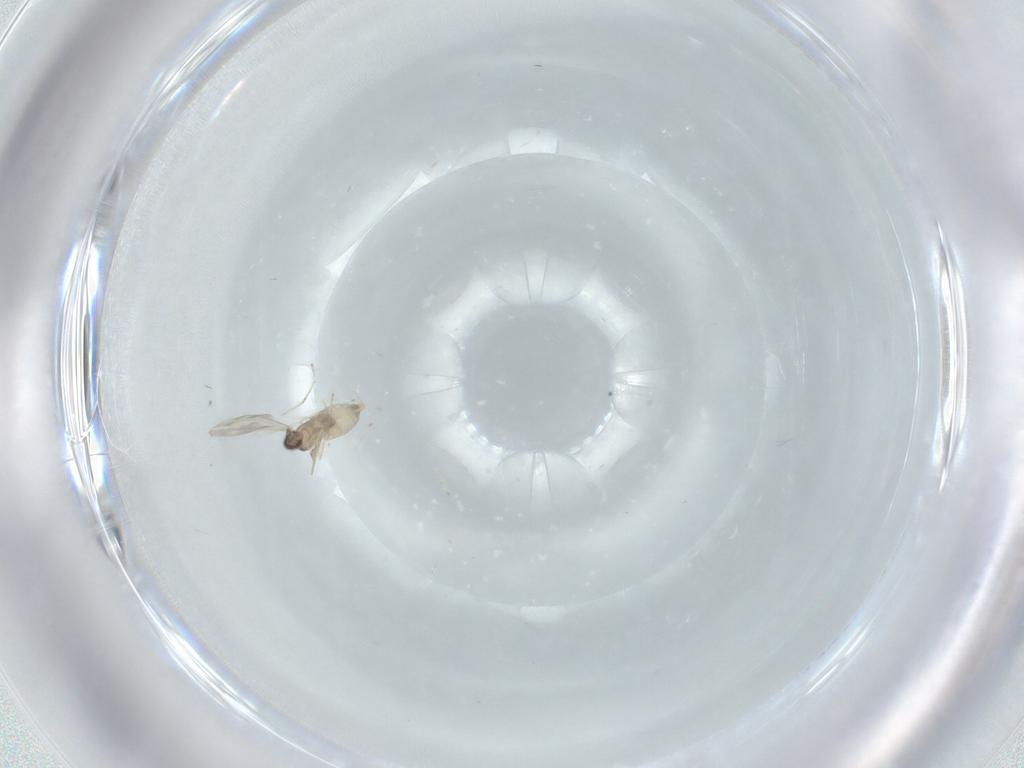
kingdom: Animalia
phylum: Arthropoda
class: Insecta
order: Diptera
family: Cecidomyiidae
